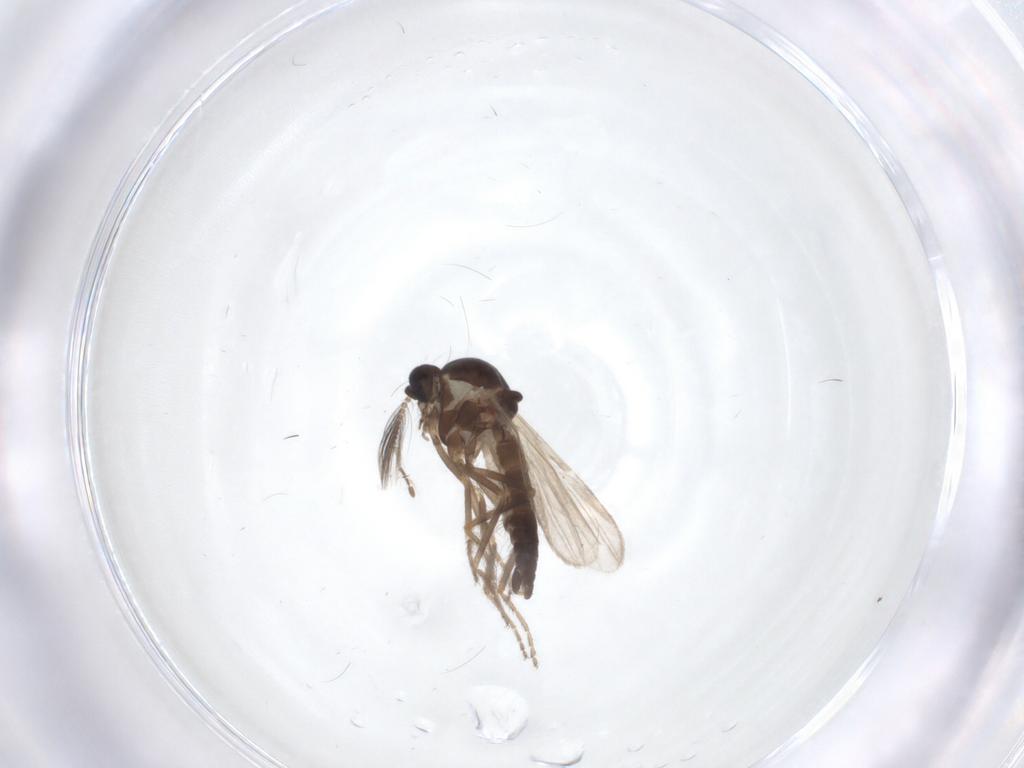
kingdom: Animalia
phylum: Arthropoda
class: Insecta
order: Diptera
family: Ceratopogonidae
